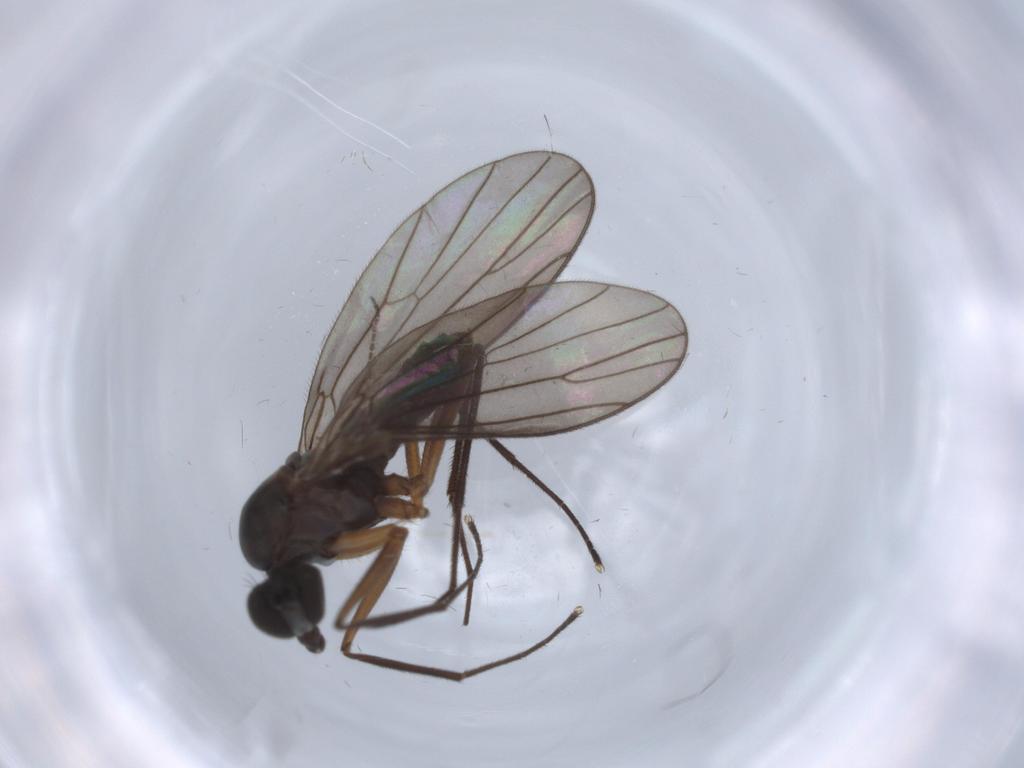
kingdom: Animalia
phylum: Arthropoda
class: Insecta
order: Diptera
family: Empididae
